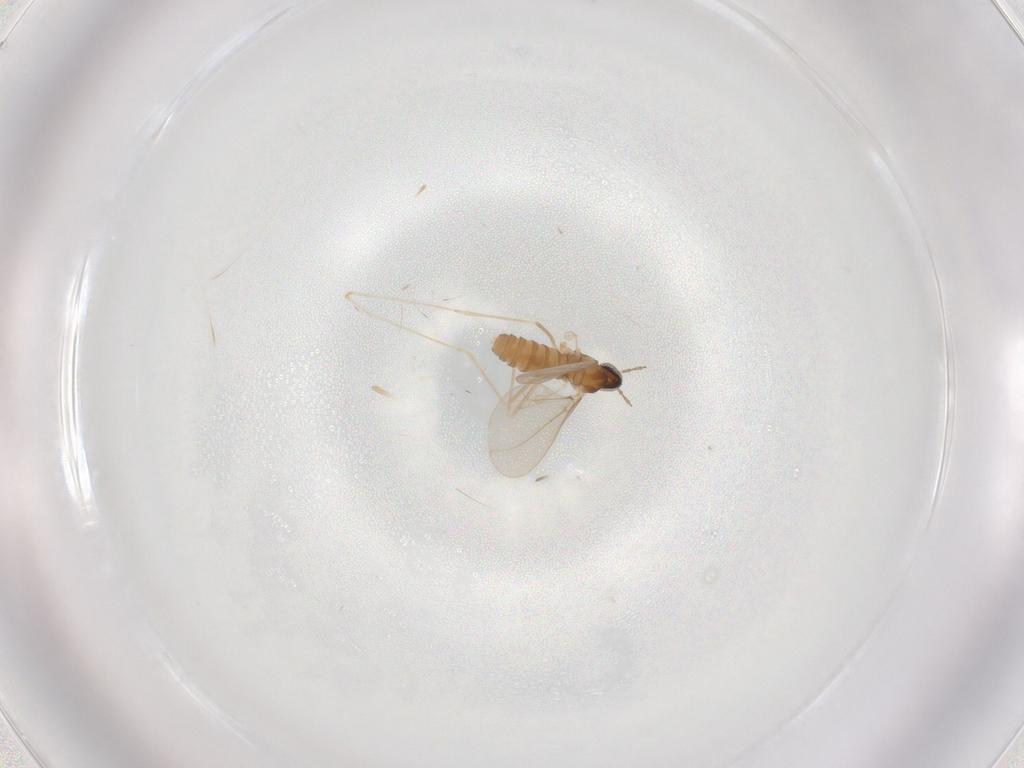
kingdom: Animalia
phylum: Arthropoda
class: Insecta
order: Diptera
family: Cecidomyiidae
